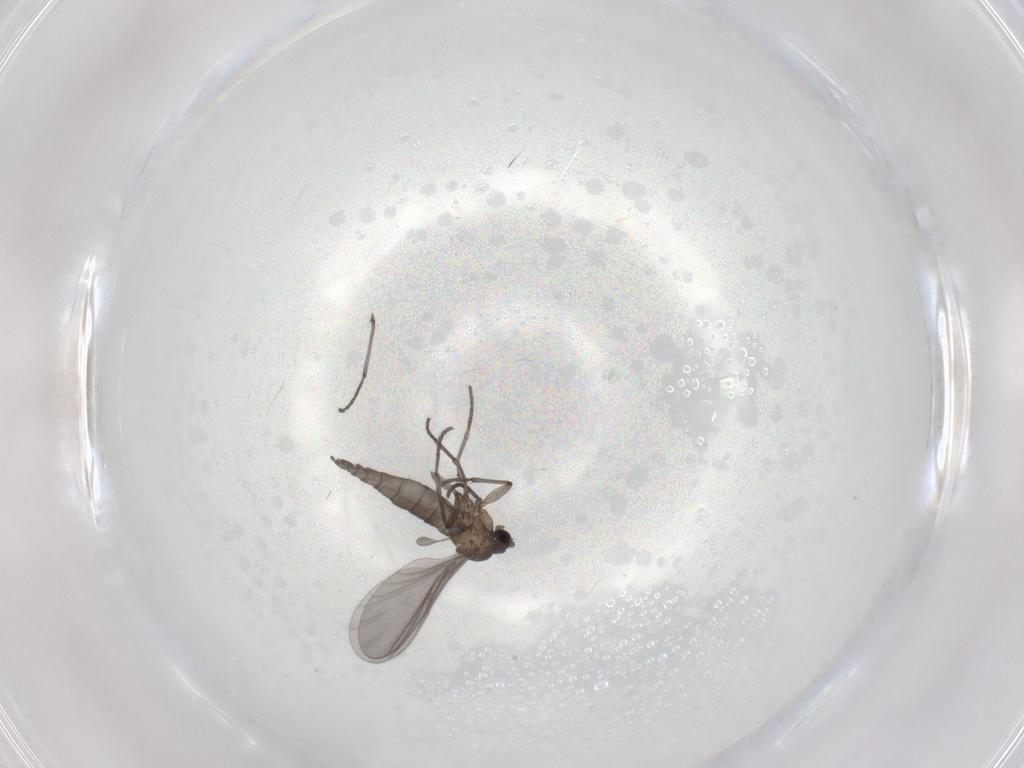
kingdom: Animalia
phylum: Arthropoda
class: Insecta
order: Diptera
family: Sciaridae
